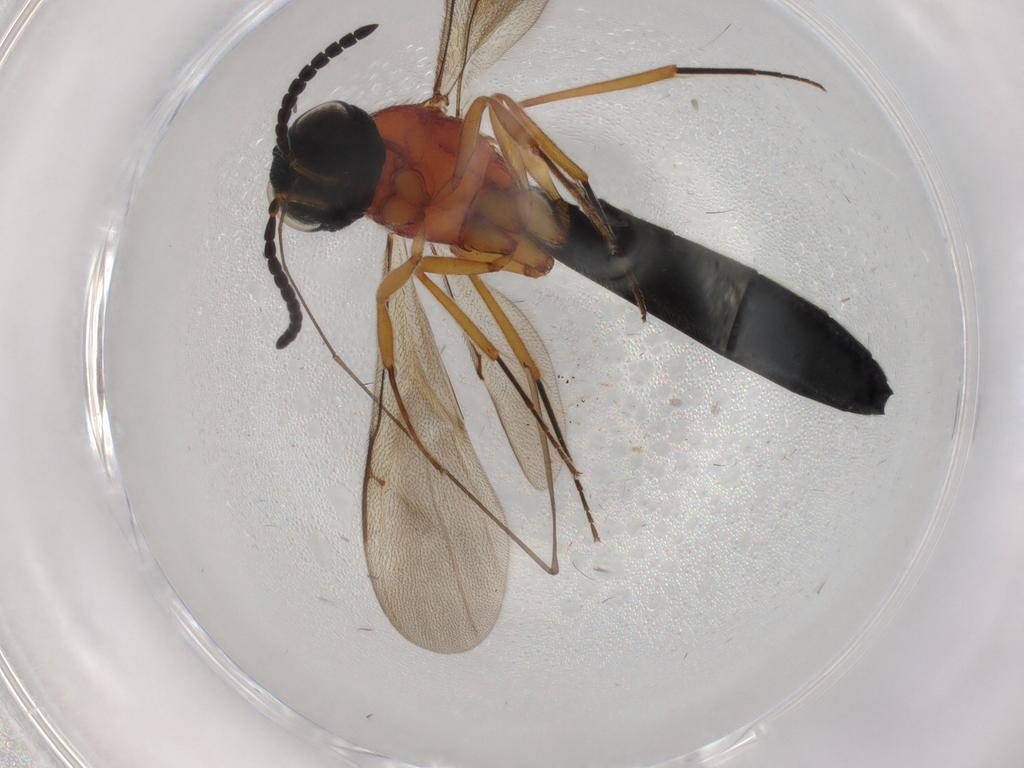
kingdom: Animalia
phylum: Arthropoda
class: Insecta
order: Hymenoptera
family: Scelionidae
